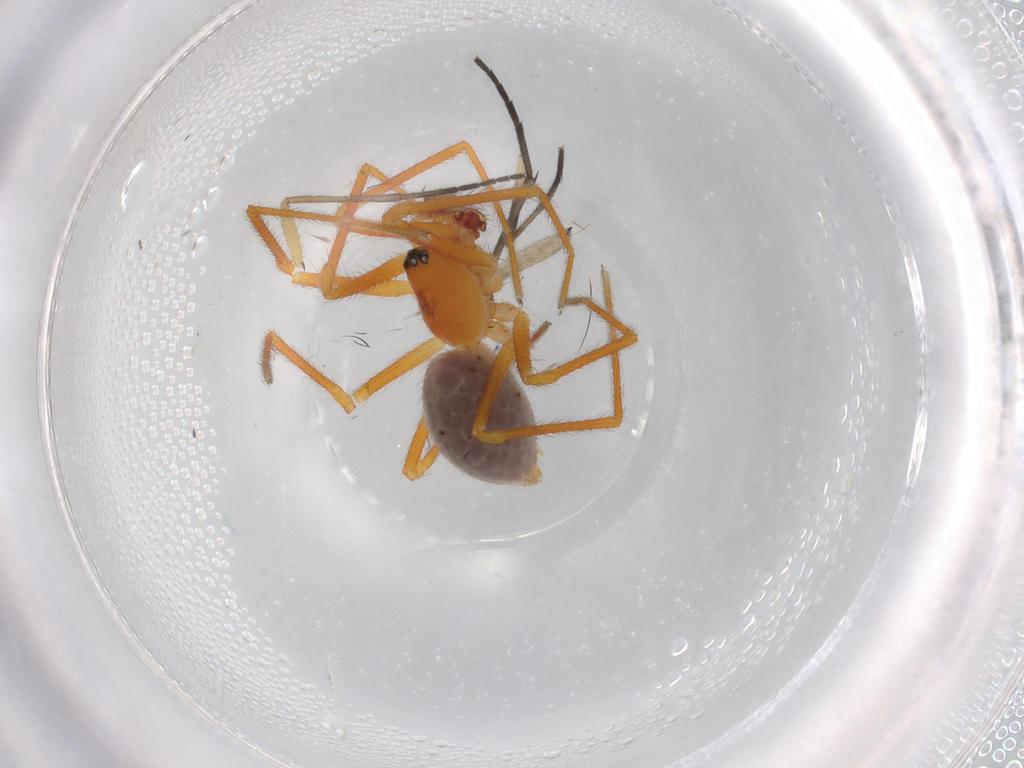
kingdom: Animalia
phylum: Arthropoda
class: Arachnida
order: Araneae
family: Linyphiidae
